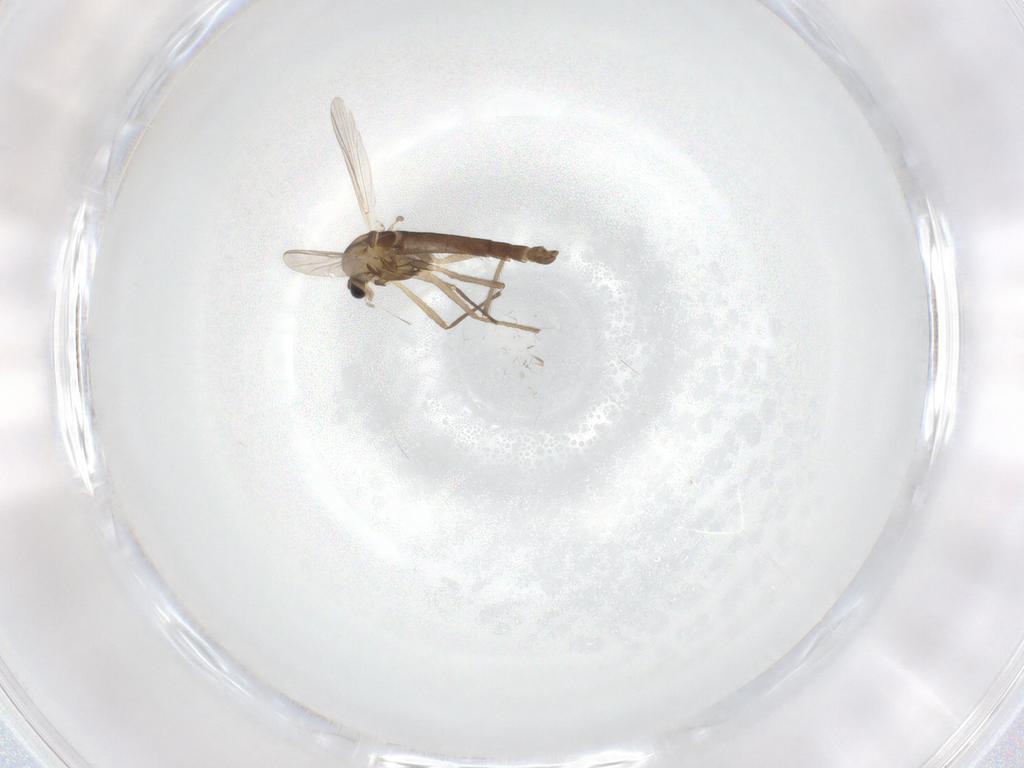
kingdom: Animalia
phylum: Arthropoda
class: Insecta
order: Diptera
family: Chironomidae
